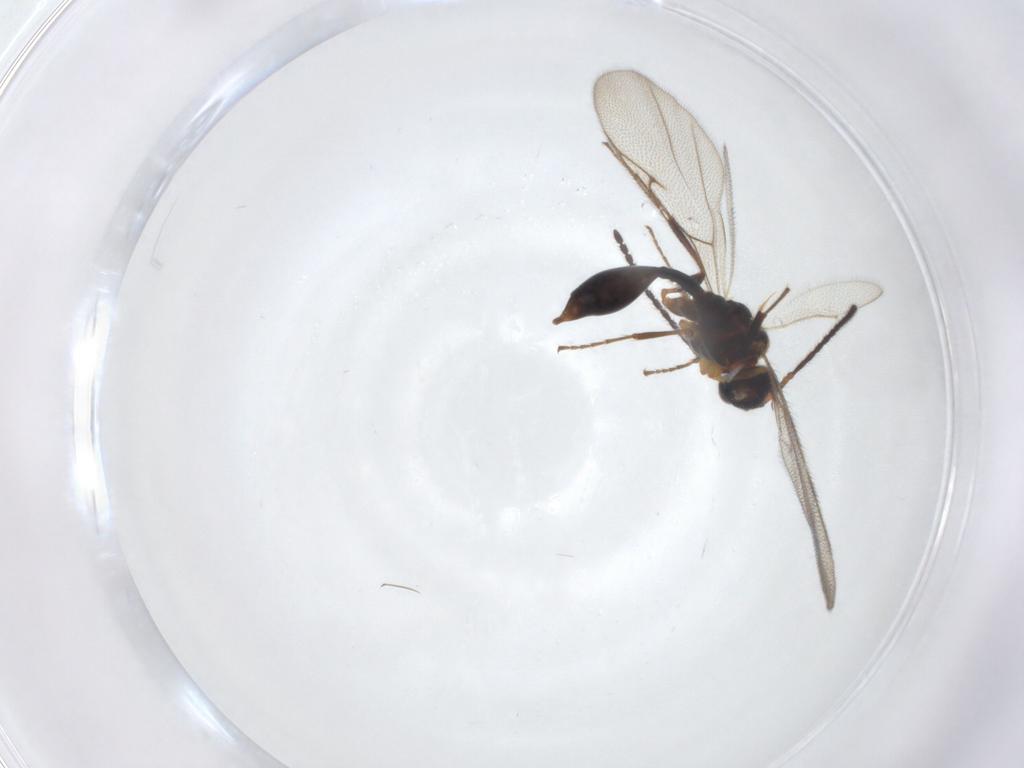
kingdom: Animalia
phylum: Arthropoda
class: Insecta
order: Hymenoptera
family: Diapriidae
